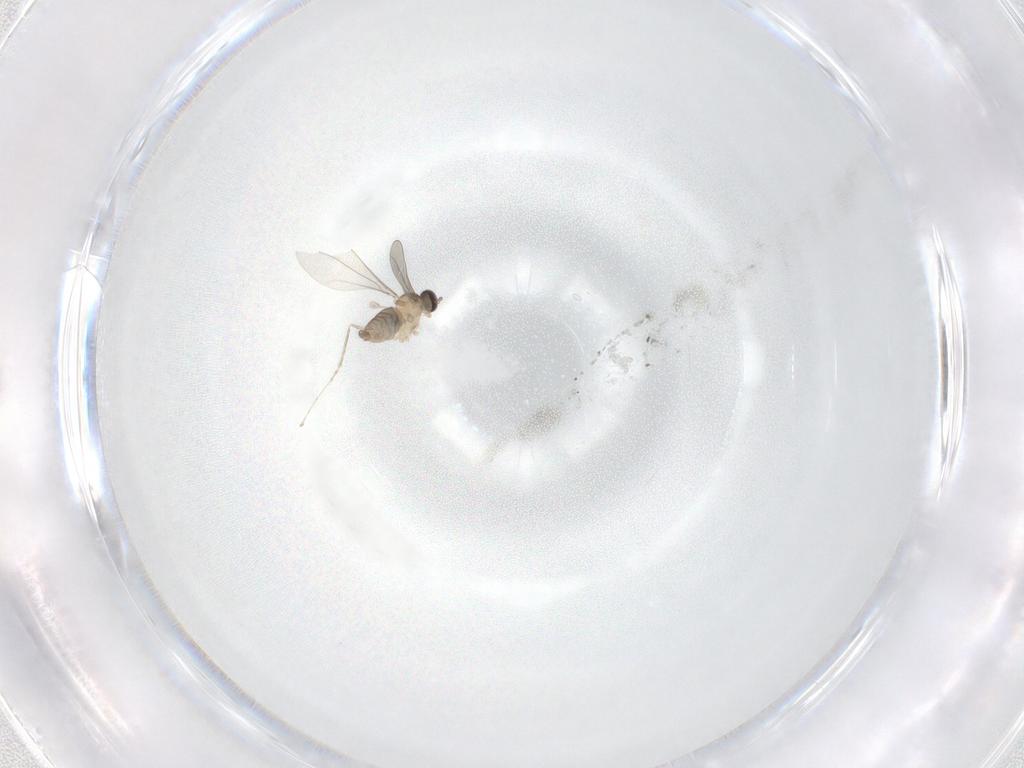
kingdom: Animalia
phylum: Arthropoda
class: Insecta
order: Diptera
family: Cecidomyiidae
